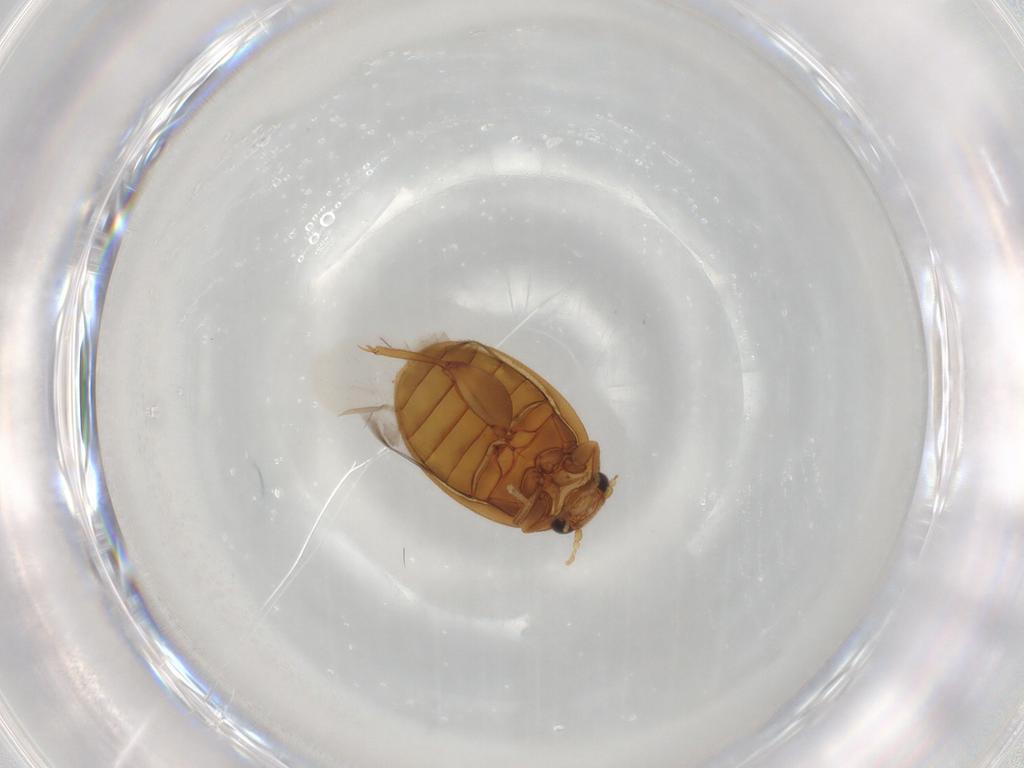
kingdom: Animalia
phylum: Arthropoda
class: Insecta
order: Coleoptera
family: Scirtidae
